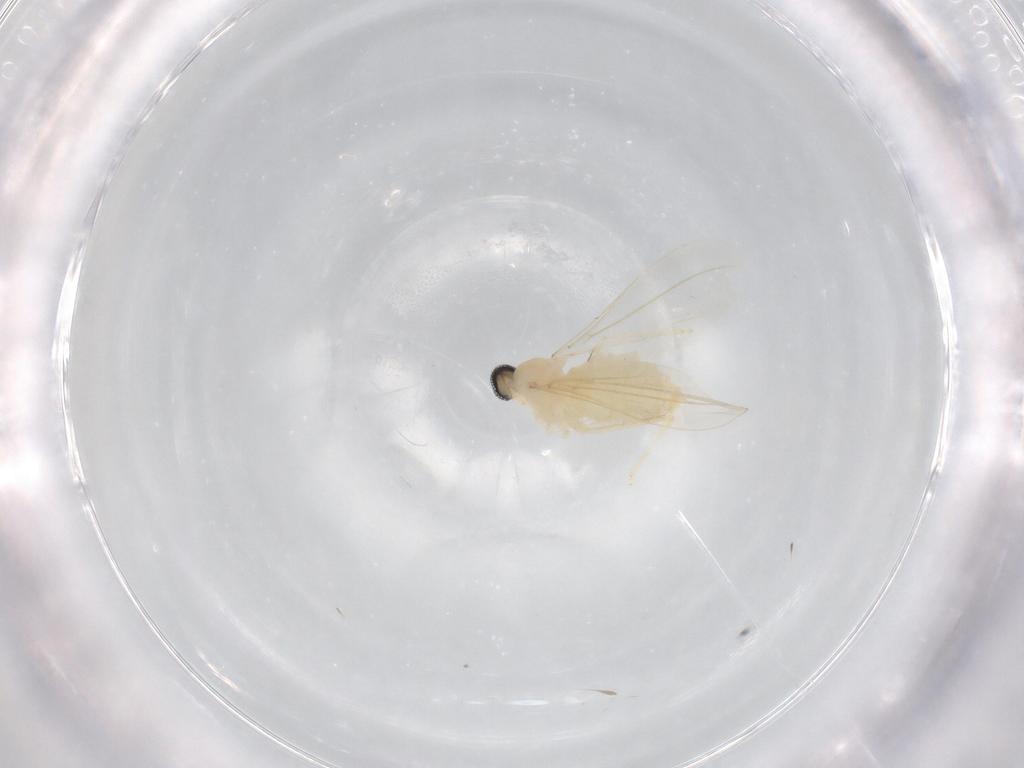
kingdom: Animalia
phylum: Arthropoda
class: Insecta
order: Diptera
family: Cecidomyiidae
